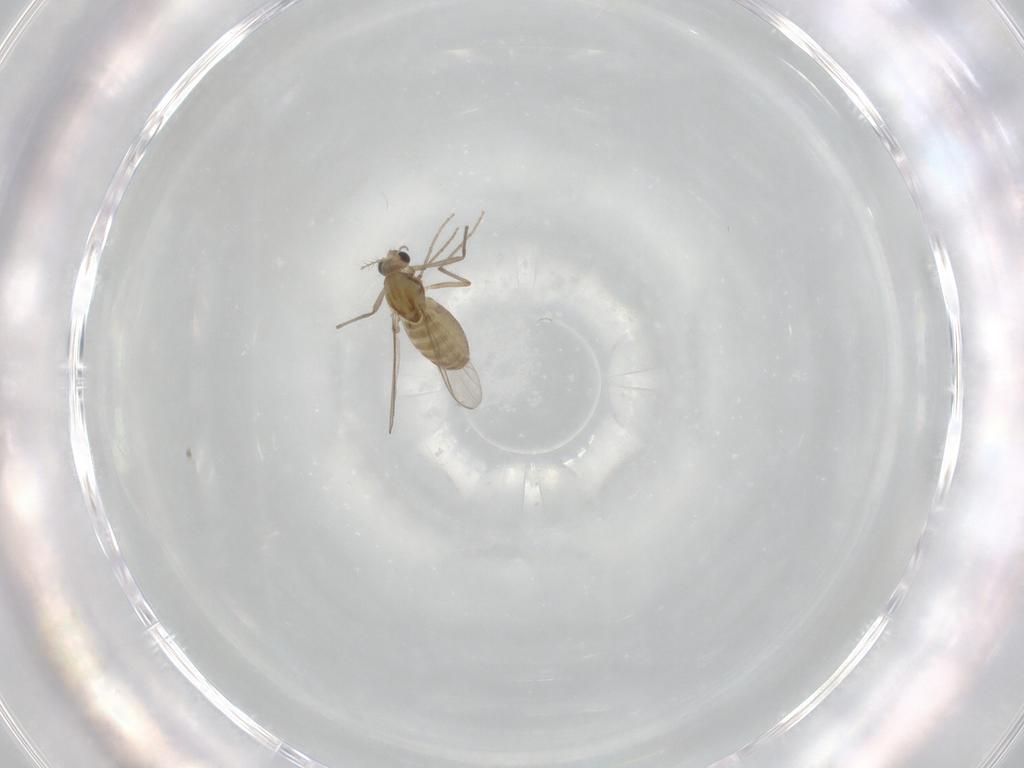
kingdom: Animalia
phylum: Arthropoda
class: Insecta
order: Diptera
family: Chironomidae
